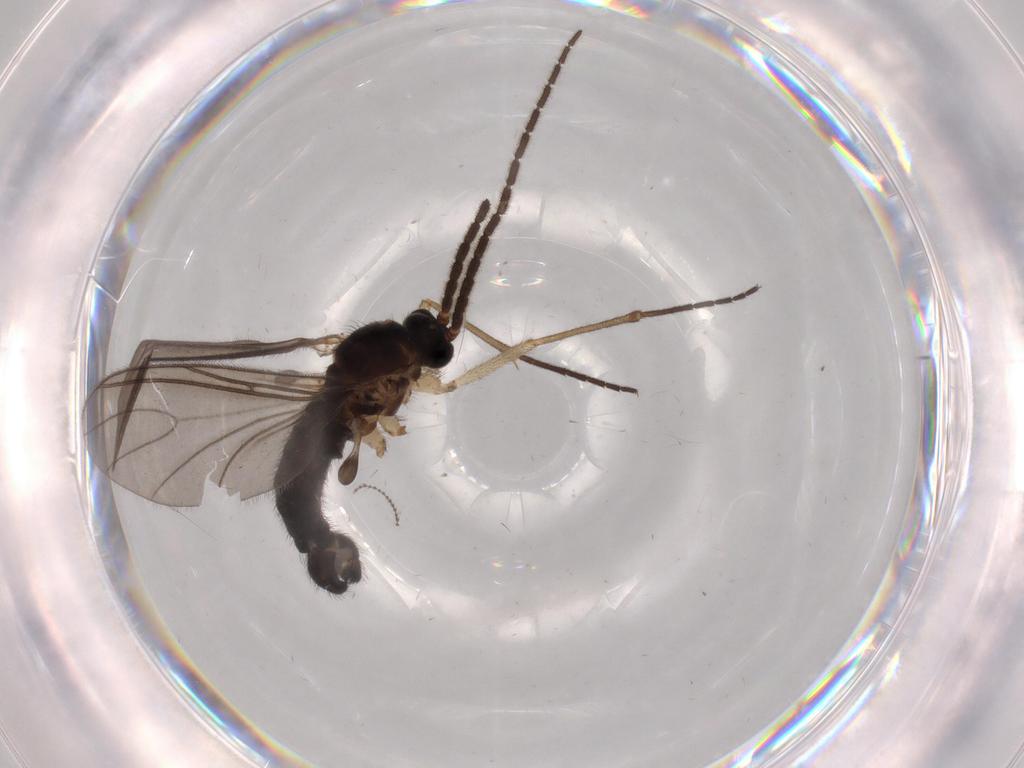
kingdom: Animalia
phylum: Arthropoda
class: Insecta
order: Diptera
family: Sciaridae
